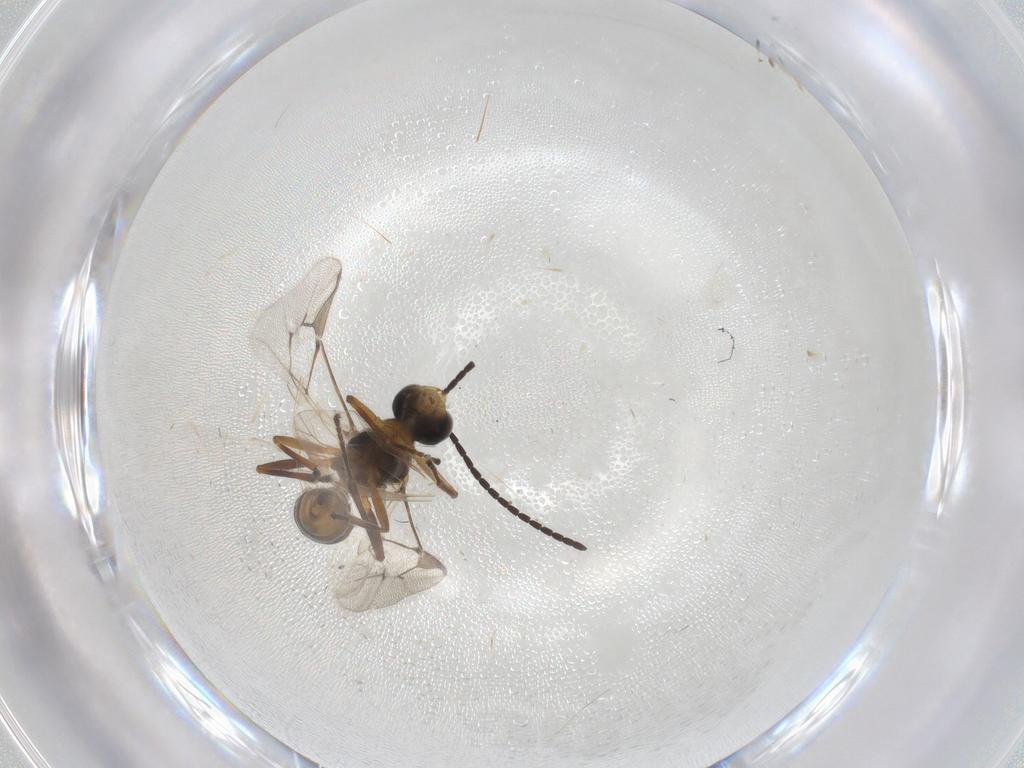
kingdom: Animalia
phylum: Arthropoda
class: Insecta
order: Hymenoptera
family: Braconidae
